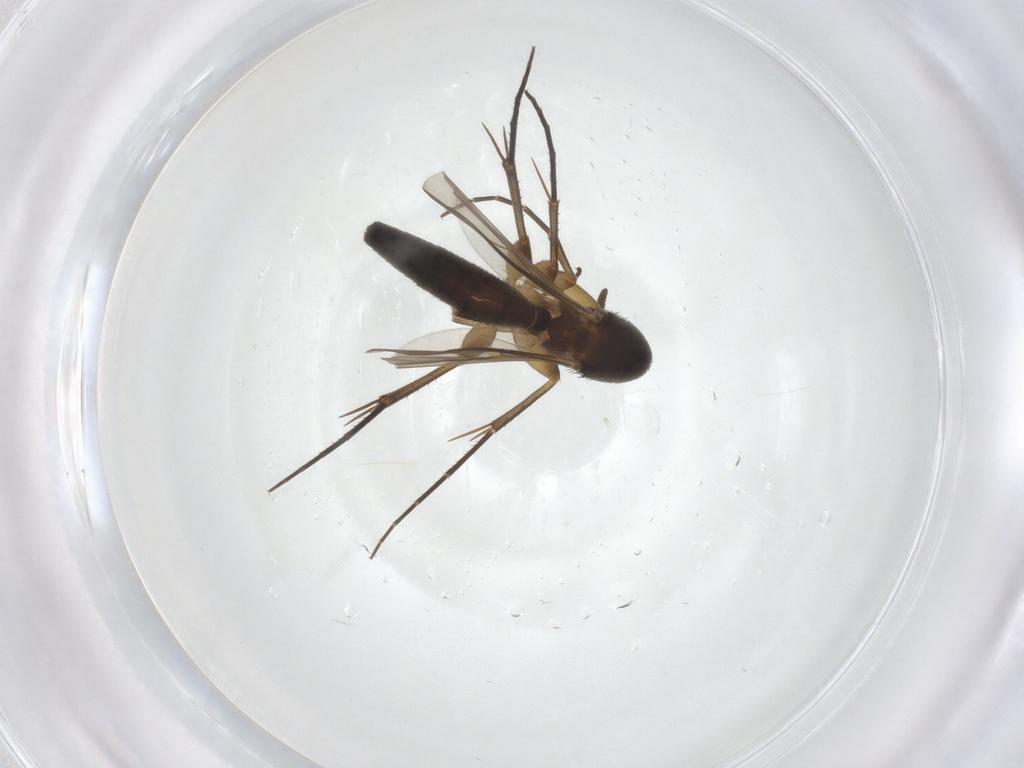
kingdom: Animalia
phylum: Arthropoda
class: Insecta
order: Diptera
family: Mycetophilidae
